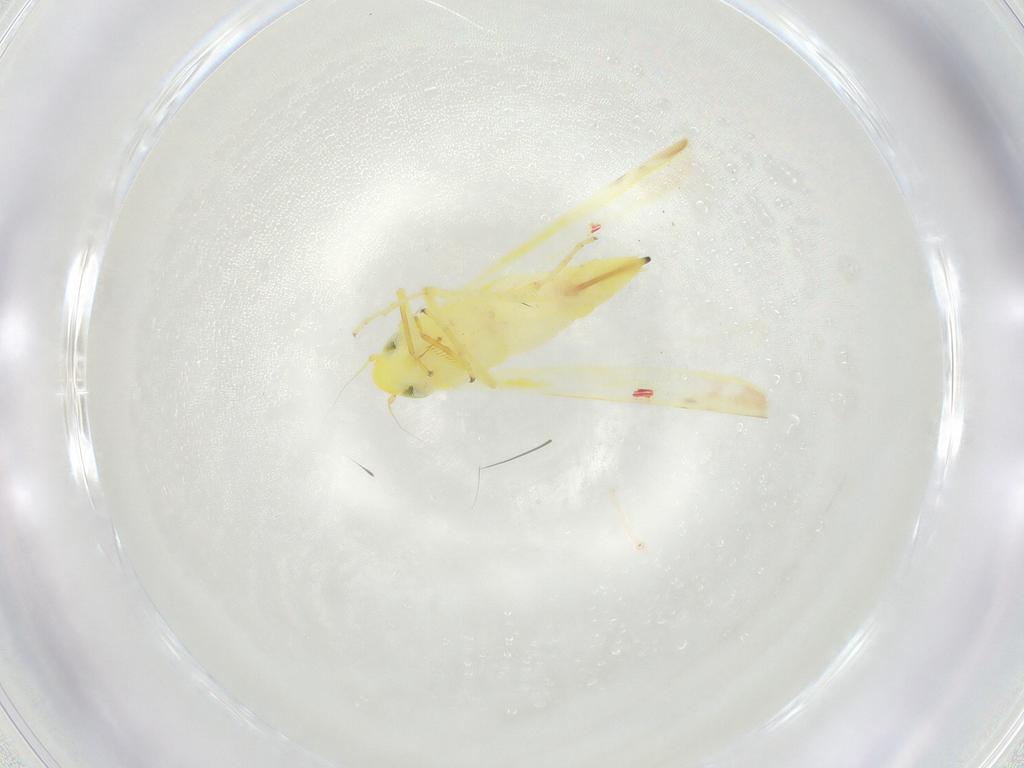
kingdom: Animalia
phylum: Arthropoda
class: Insecta
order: Hemiptera
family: Cicadellidae
